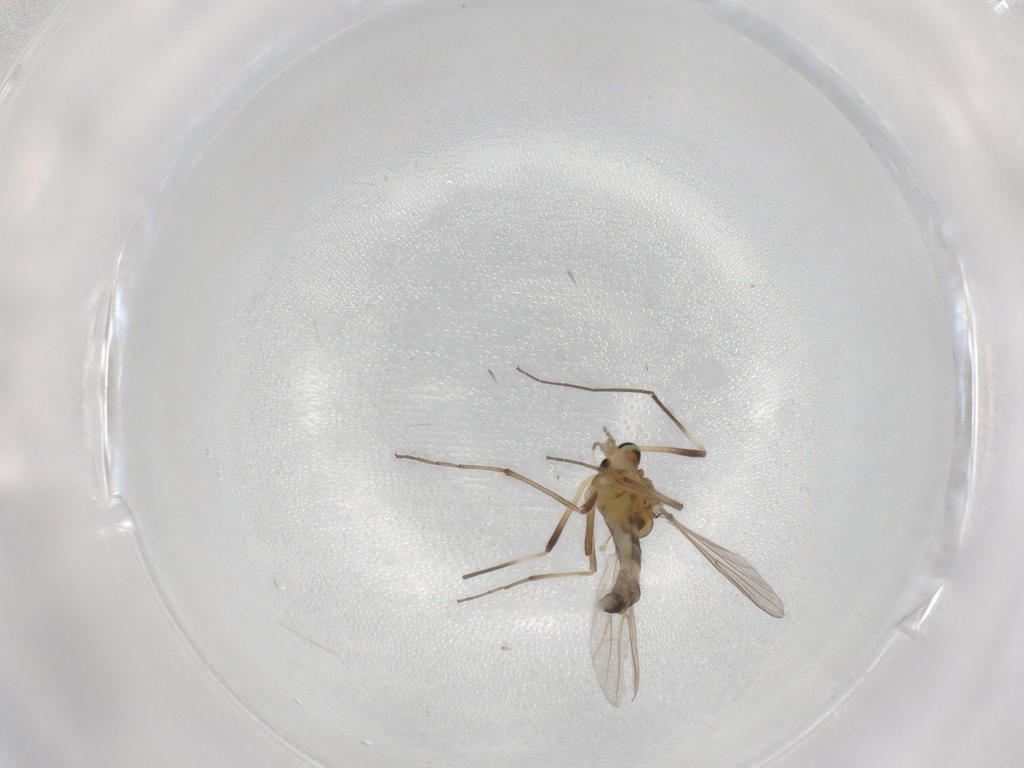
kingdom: Animalia
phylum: Arthropoda
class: Insecta
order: Diptera
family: Chironomidae
